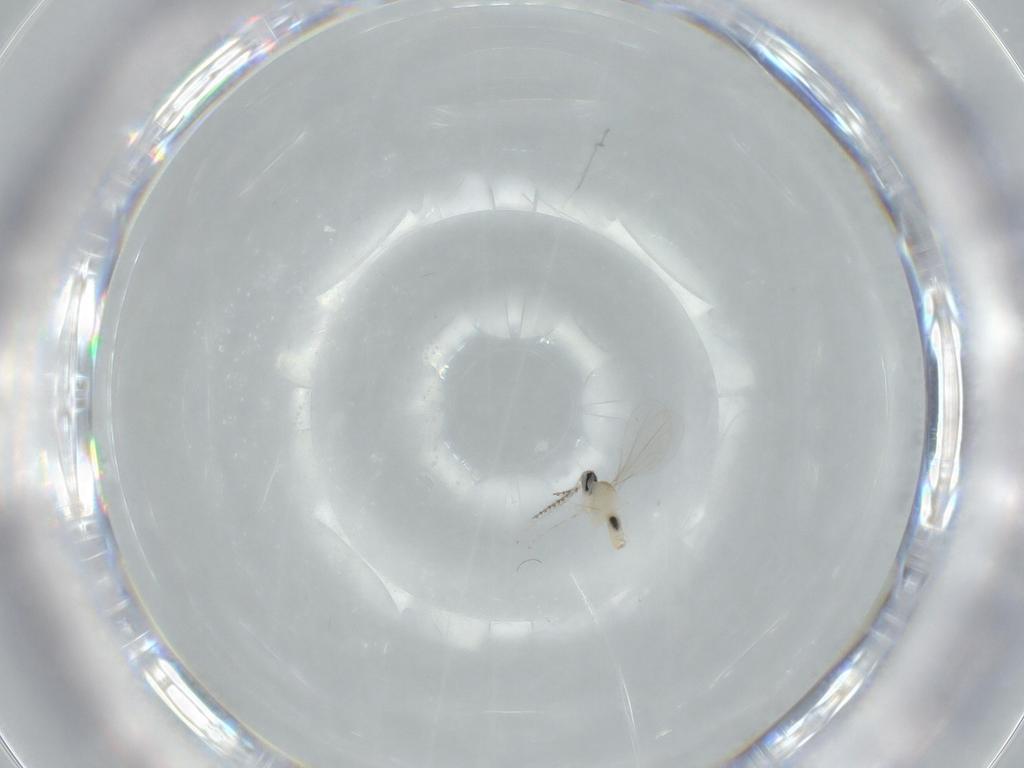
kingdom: Animalia
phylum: Arthropoda
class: Insecta
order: Diptera
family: Cecidomyiidae
